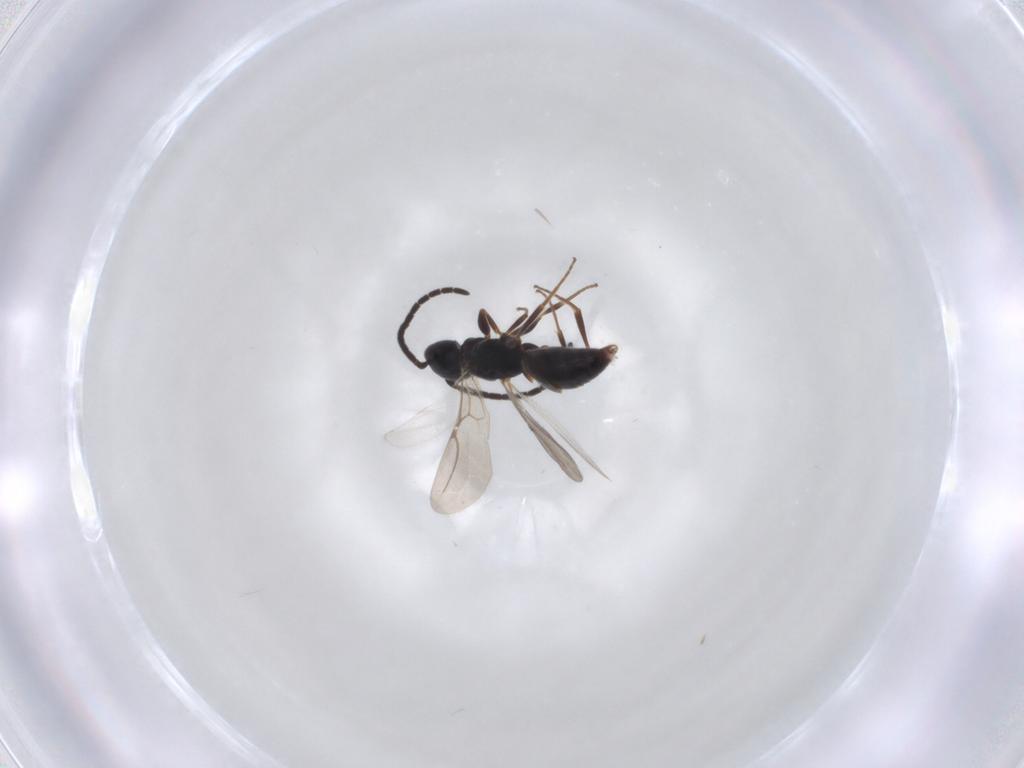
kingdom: Animalia
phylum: Arthropoda
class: Insecta
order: Hymenoptera
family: Bethylidae
